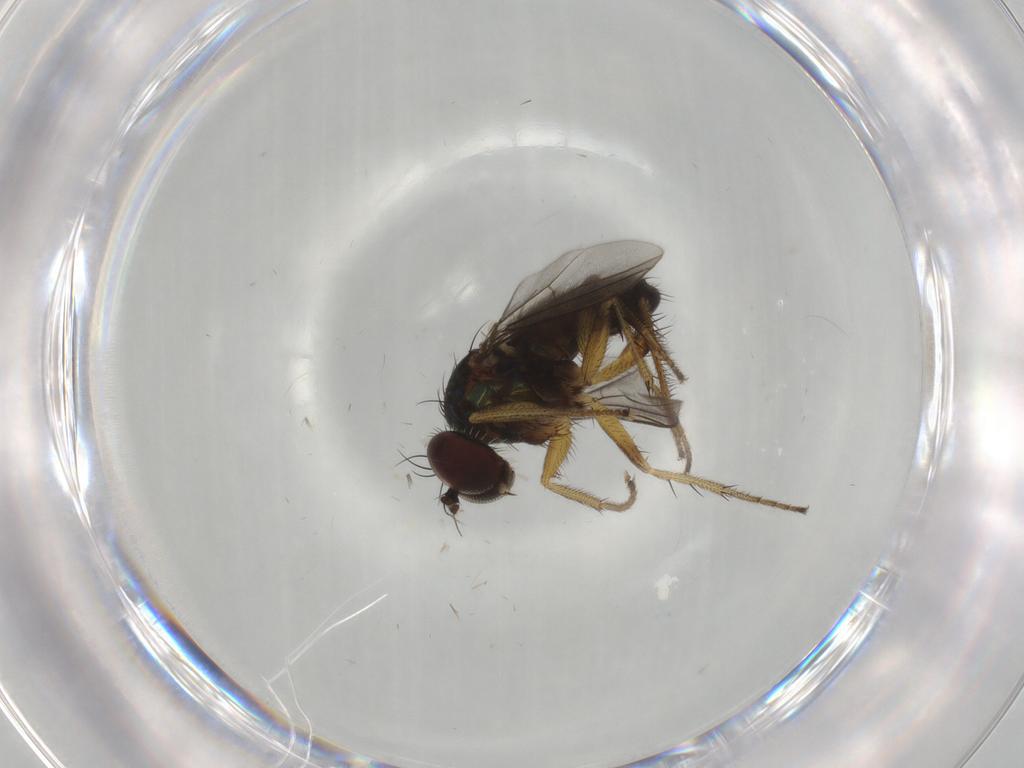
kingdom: Animalia
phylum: Arthropoda
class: Insecta
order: Diptera
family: Dolichopodidae
